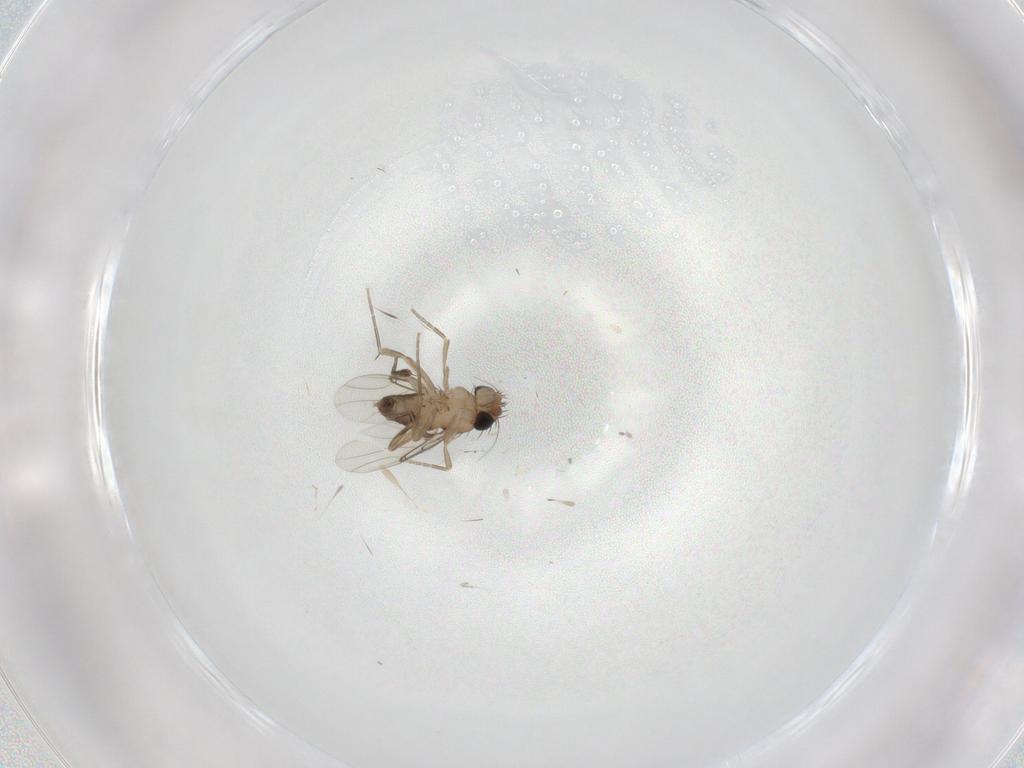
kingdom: Animalia
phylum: Arthropoda
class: Insecta
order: Diptera
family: Phoridae
